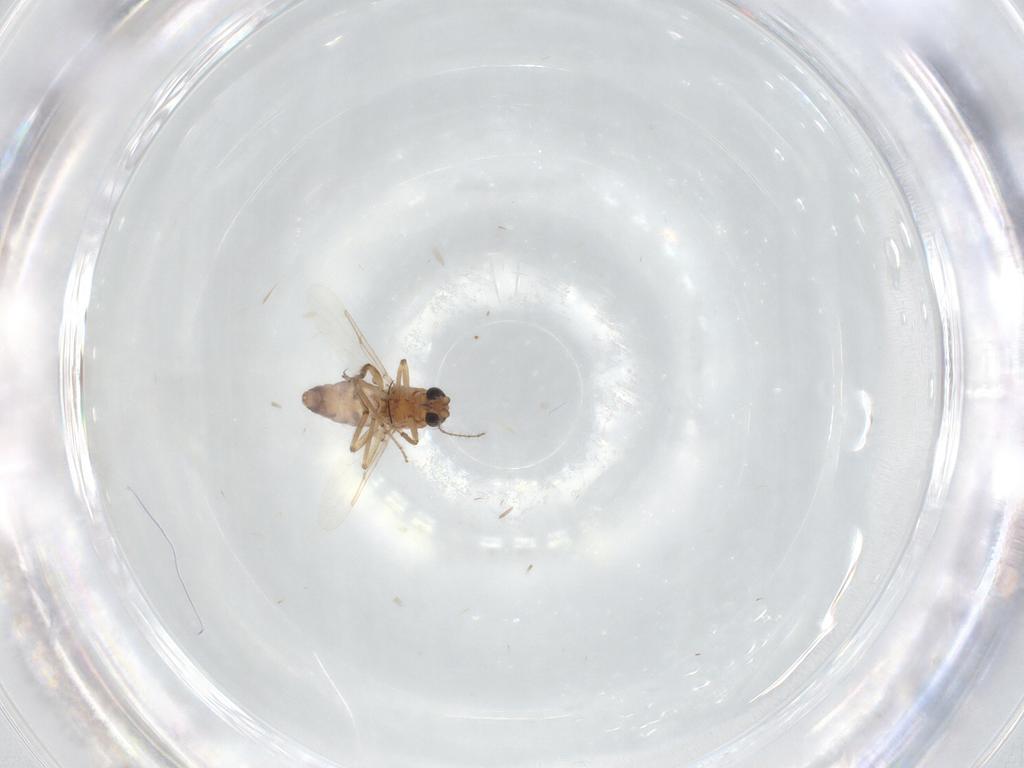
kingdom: Animalia
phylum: Arthropoda
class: Insecta
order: Diptera
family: Ceratopogonidae
